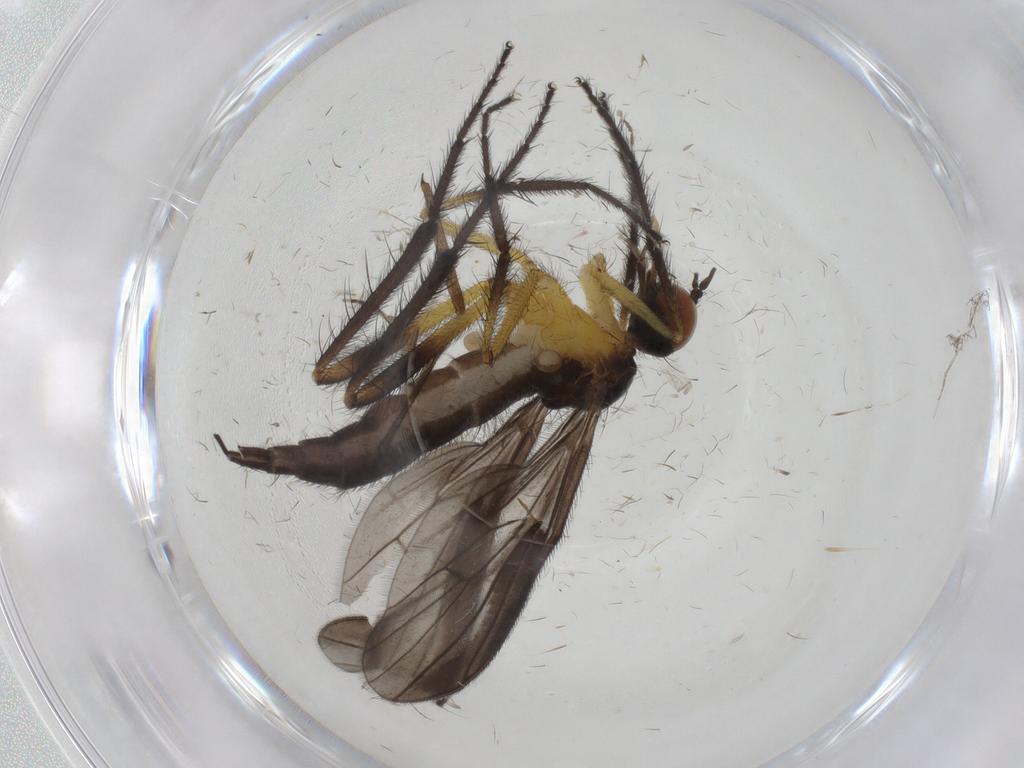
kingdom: Animalia
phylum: Arthropoda
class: Insecta
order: Diptera
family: Empididae
